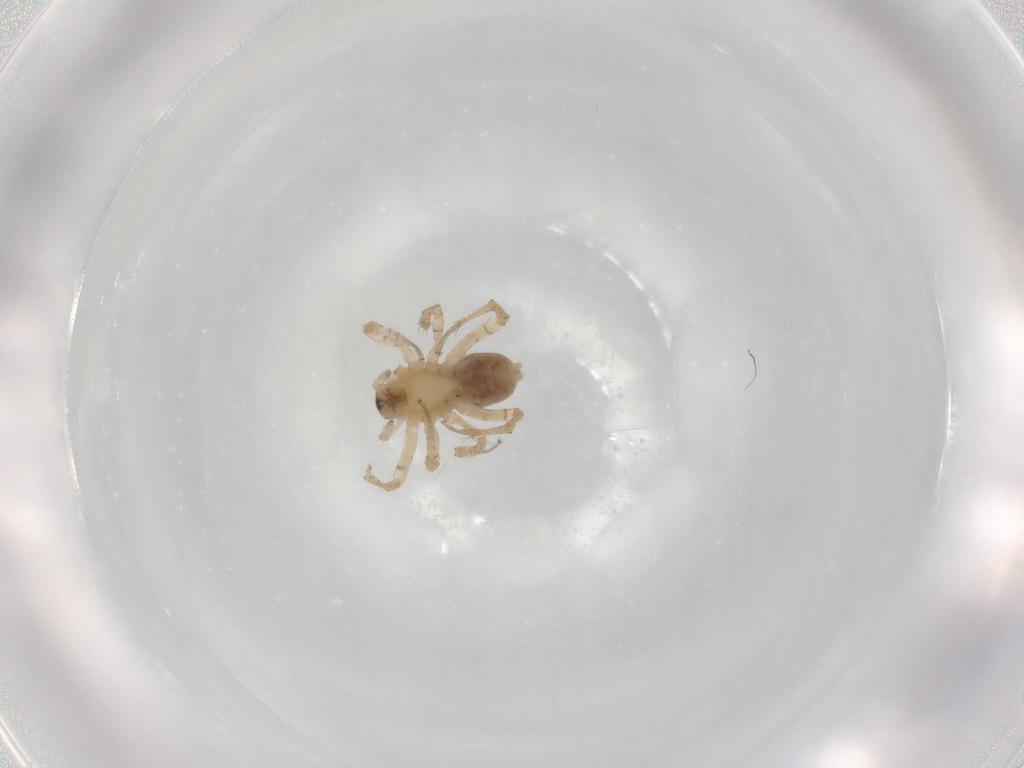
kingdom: Animalia
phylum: Arthropoda
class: Arachnida
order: Araneae
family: Anyphaenidae
